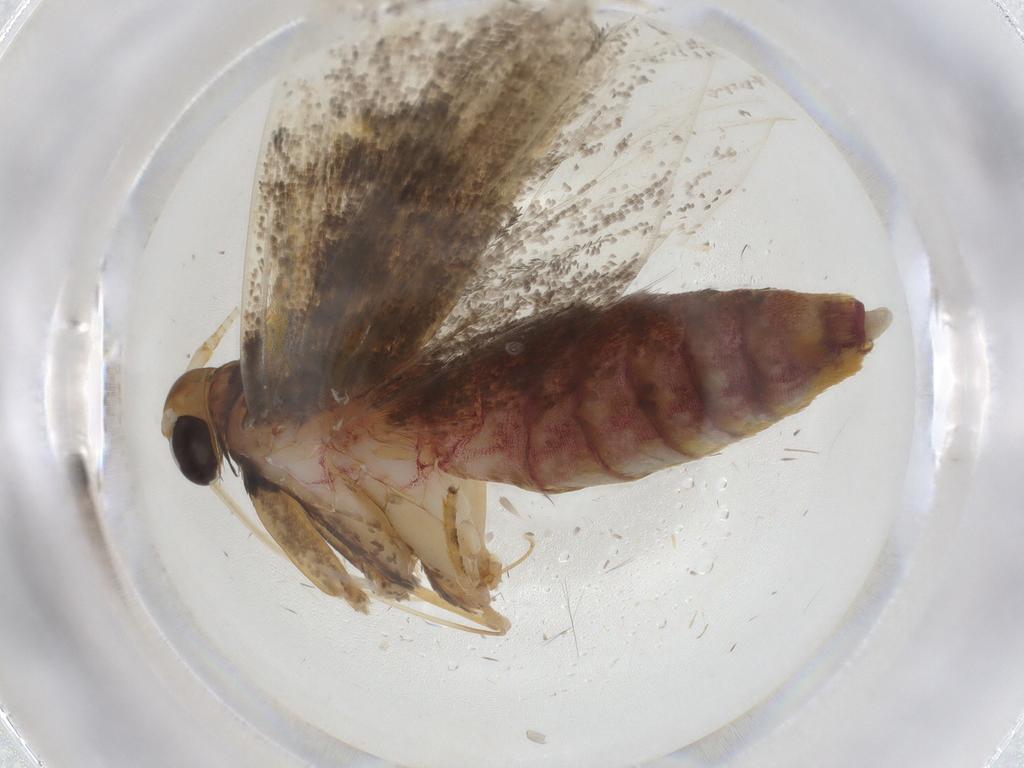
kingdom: Animalia
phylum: Arthropoda
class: Insecta
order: Lepidoptera
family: Lecithoceridae
